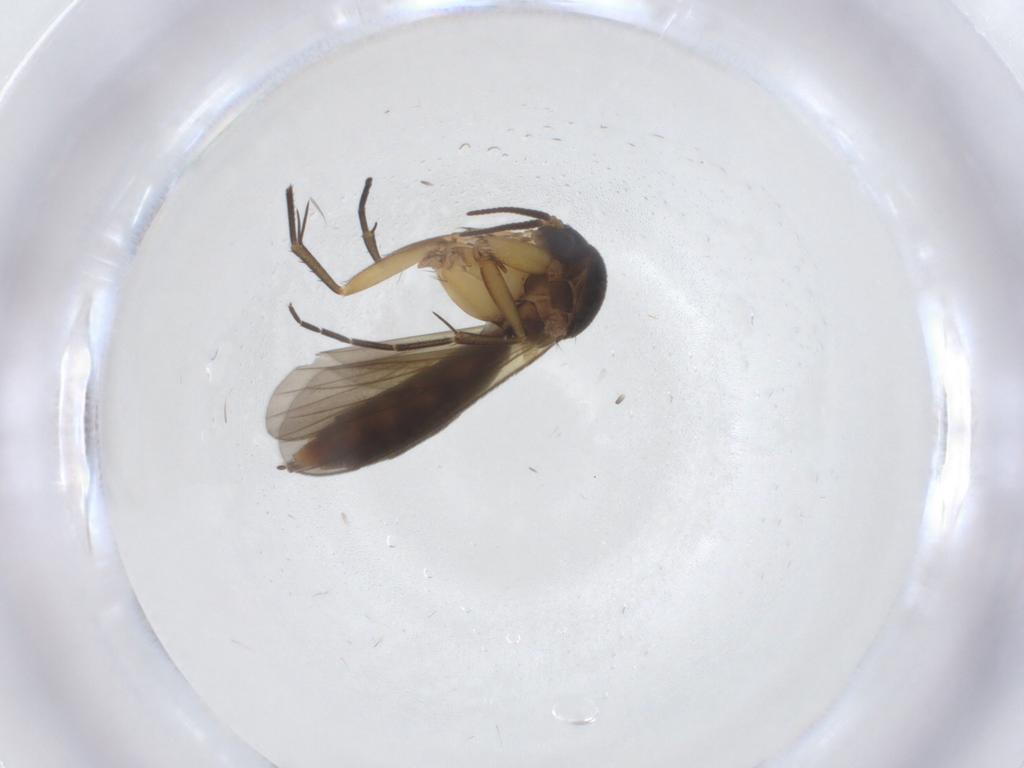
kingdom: Animalia
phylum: Arthropoda
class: Insecta
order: Diptera
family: Mycetophilidae
